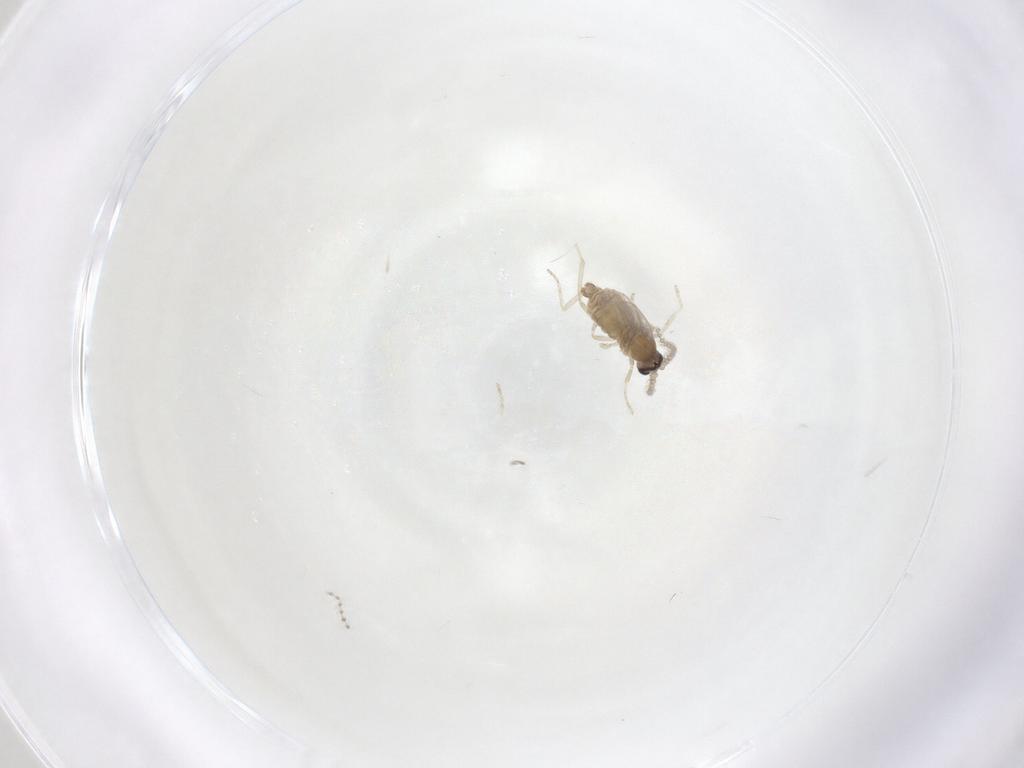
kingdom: Animalia
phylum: Arthropoda
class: Insecta
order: Diptera
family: Cecidomyiidae
